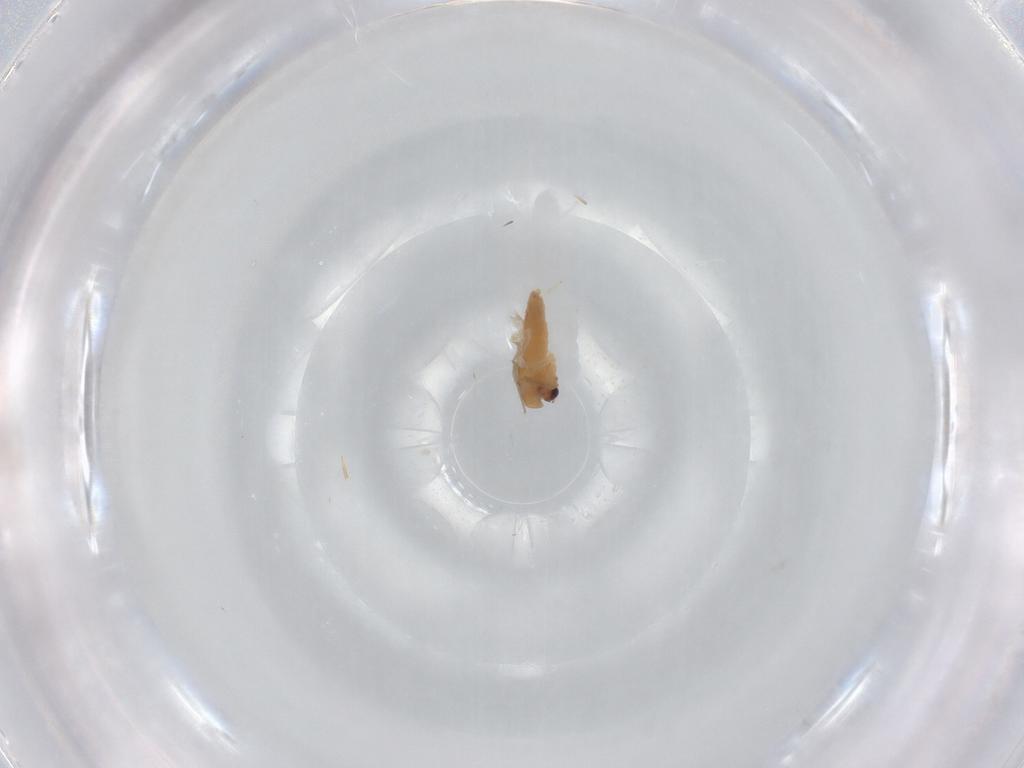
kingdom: Animalia
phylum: Arthropoda
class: Insecta
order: Diptera
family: Chironomidae
